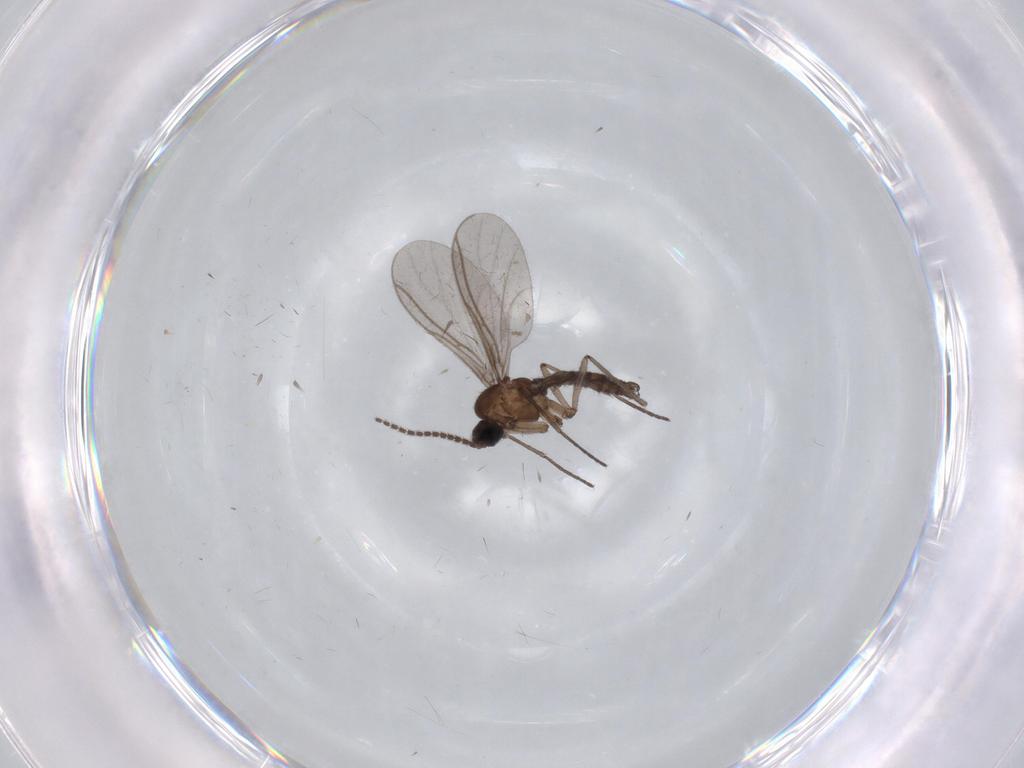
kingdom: Animalia
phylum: Arthropoda
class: Insecta
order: Diptera
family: Sciaridae
